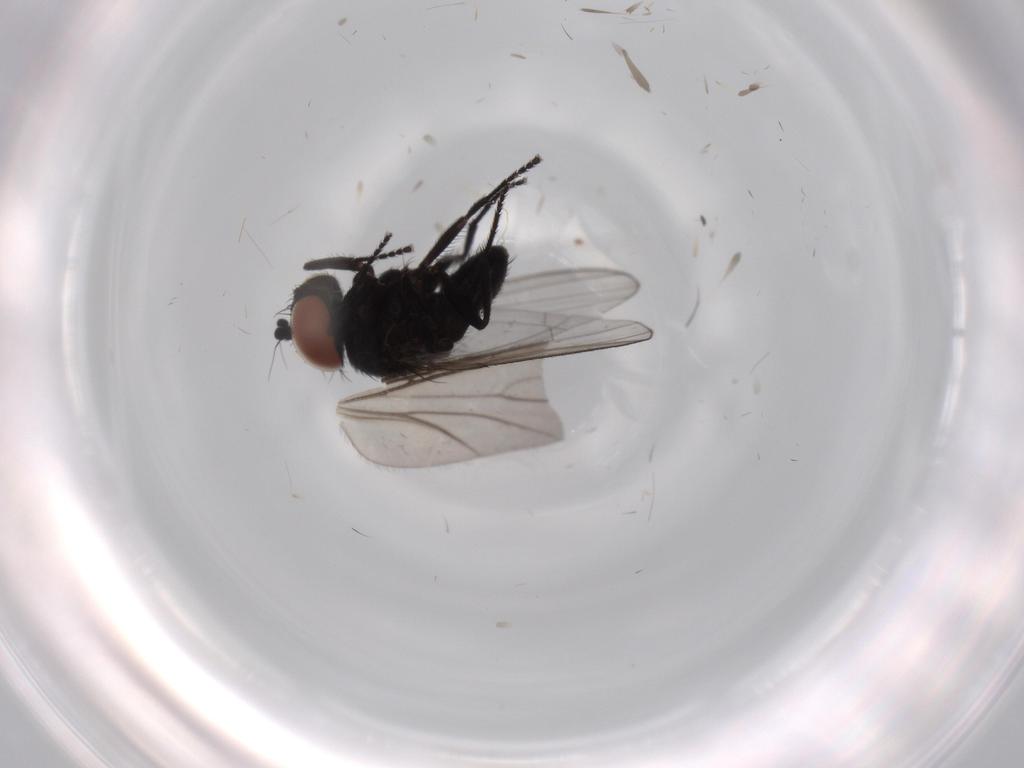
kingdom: Animalia
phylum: Arthropoda
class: Insecta
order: Diptera
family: Milichiidae
